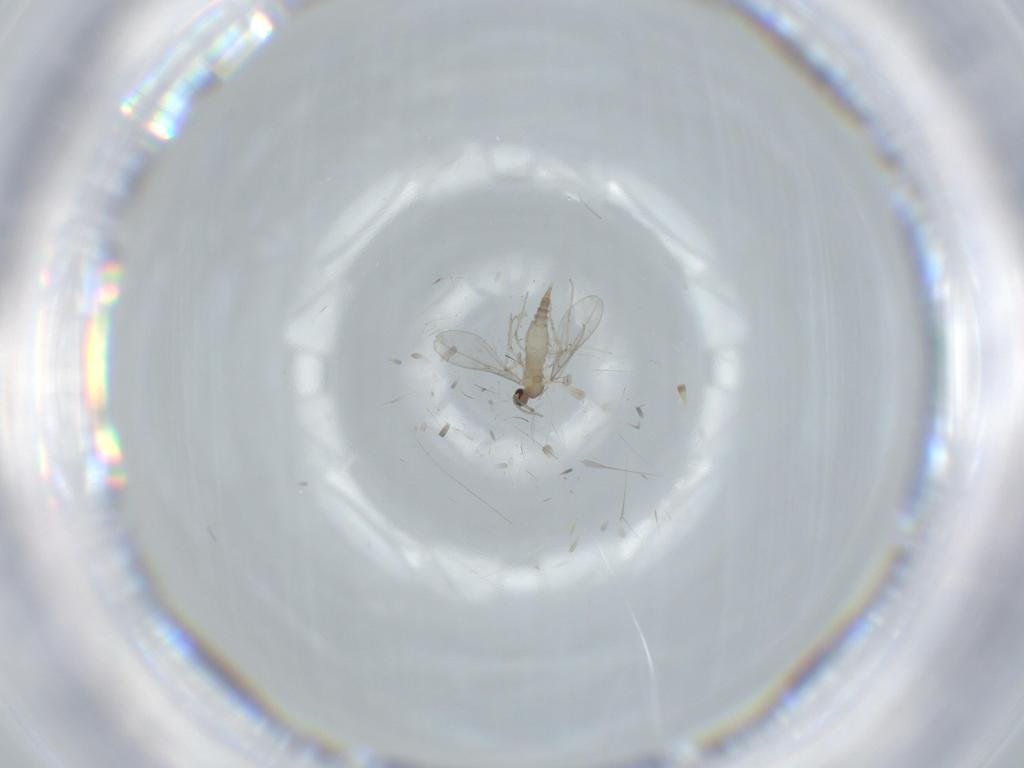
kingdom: Animalia
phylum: Arthropoda
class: Insecta
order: Diptera
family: Cecidomyiidae
